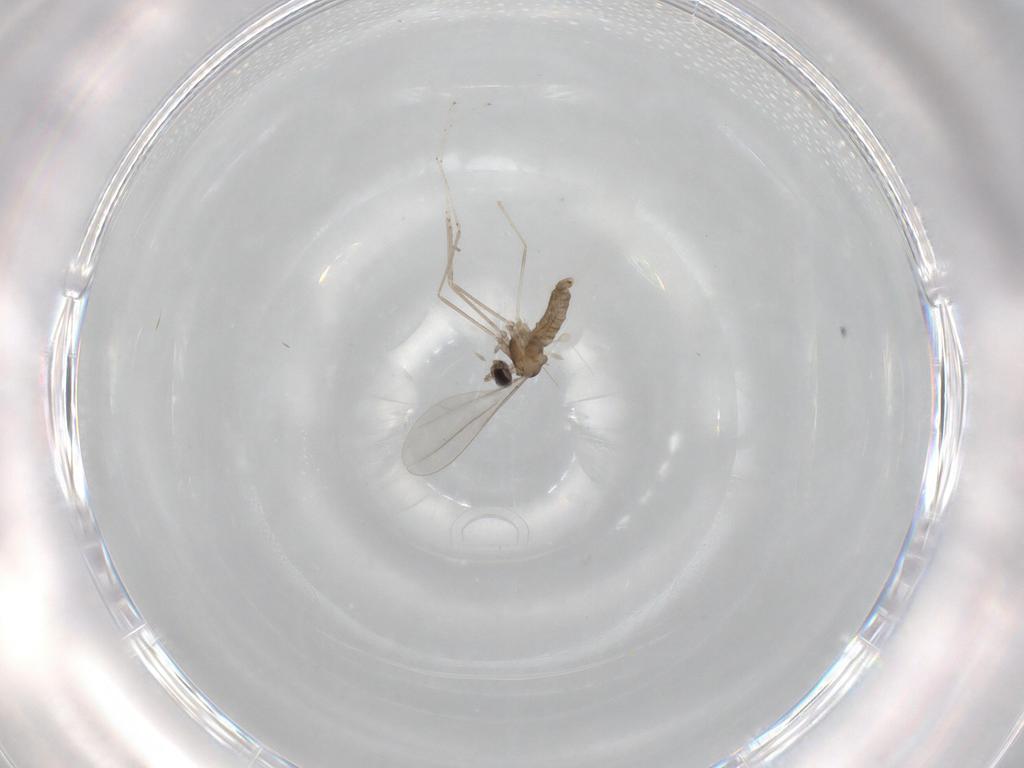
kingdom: Animalia
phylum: Arthropoda
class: Insecta
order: Diptera
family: Cecidomyiidae
